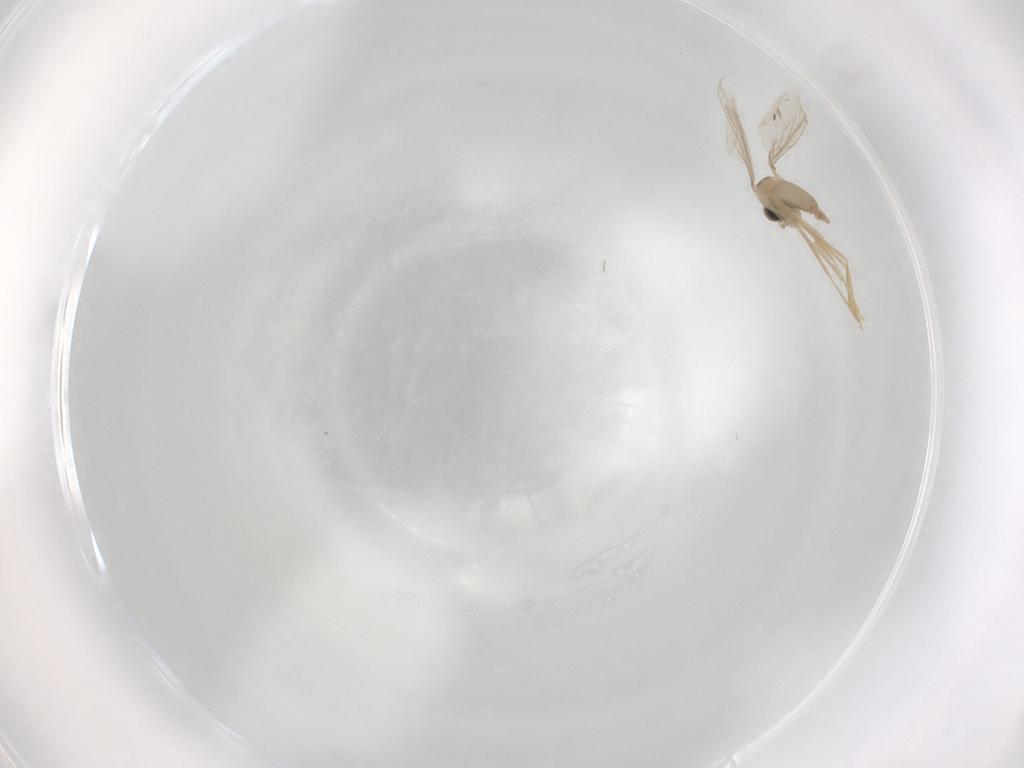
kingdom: Animalia
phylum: Arthropoda
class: Insecta
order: Diptera
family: Cecidomyiidae
